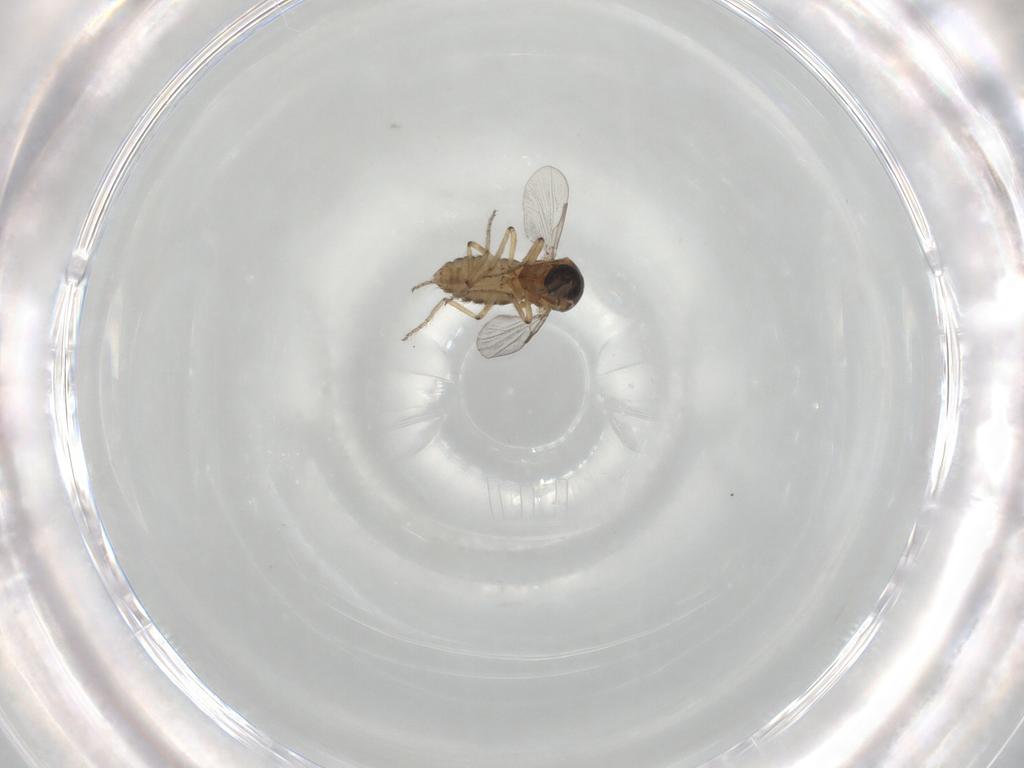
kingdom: Animalia
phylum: Arthropoda
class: Insecta
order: Diptera
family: Ceratopogonidae
